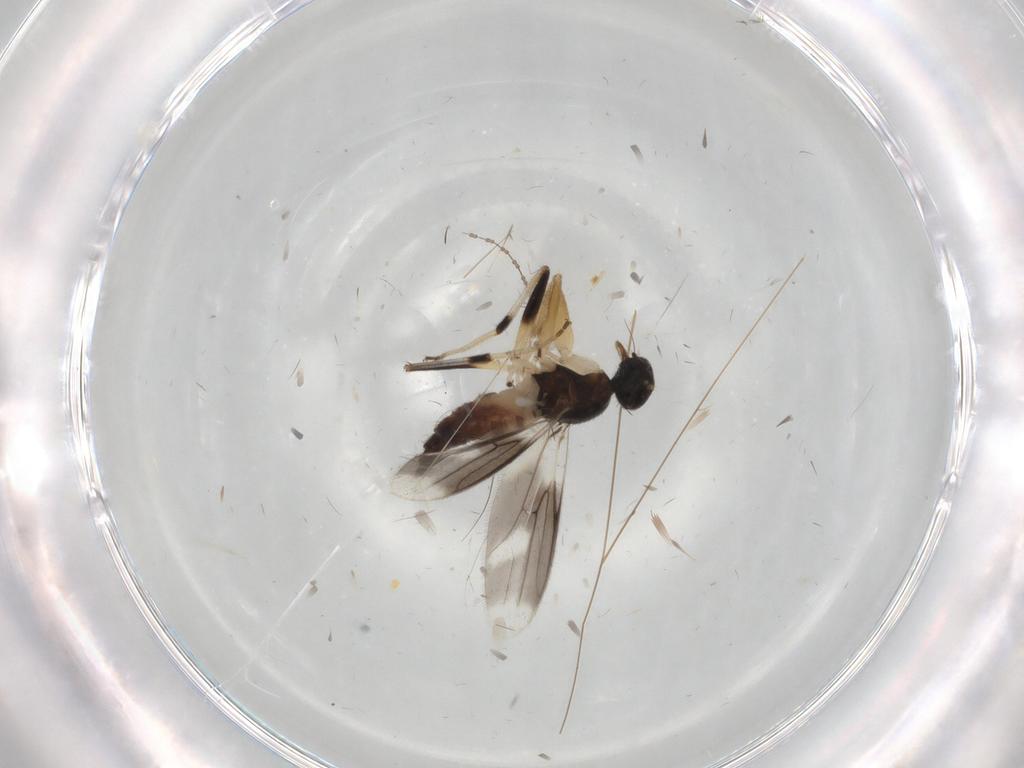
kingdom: Animalia
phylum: Arthropoda
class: Insecta
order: Diptera
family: Hybotidae
